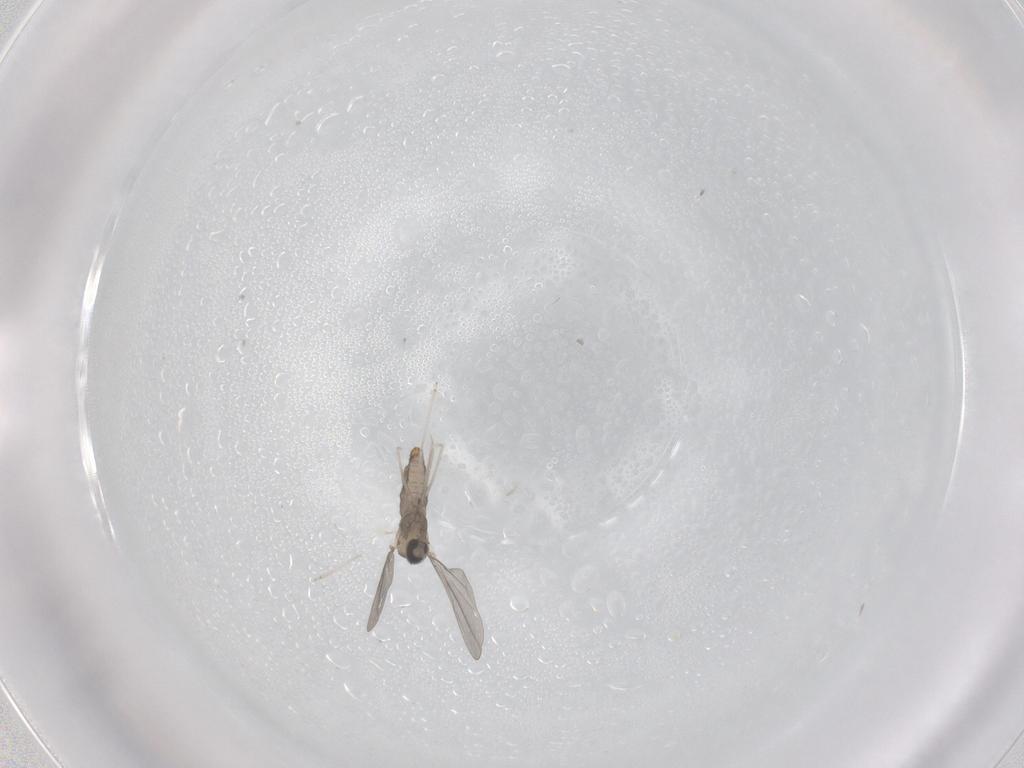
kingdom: Animalia
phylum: Arthropoda
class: Insecta
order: Diptera
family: Cecidomyiidae
